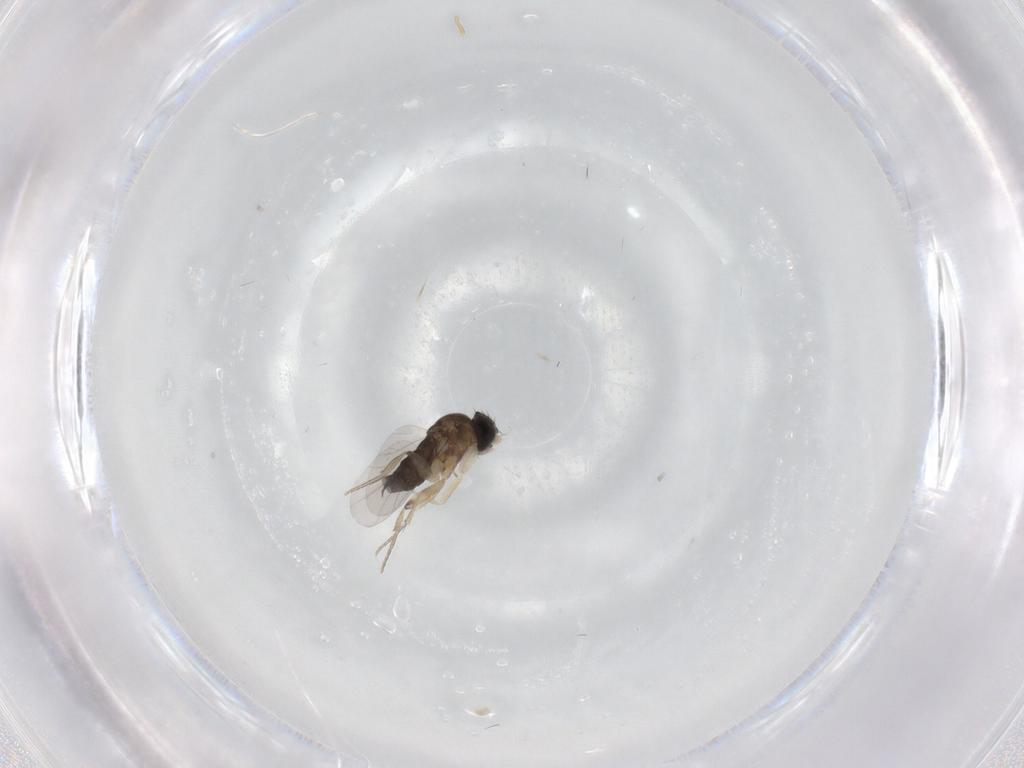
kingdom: Animalia
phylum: Arthropoda
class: Insecta
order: Diptera
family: Phoridae
